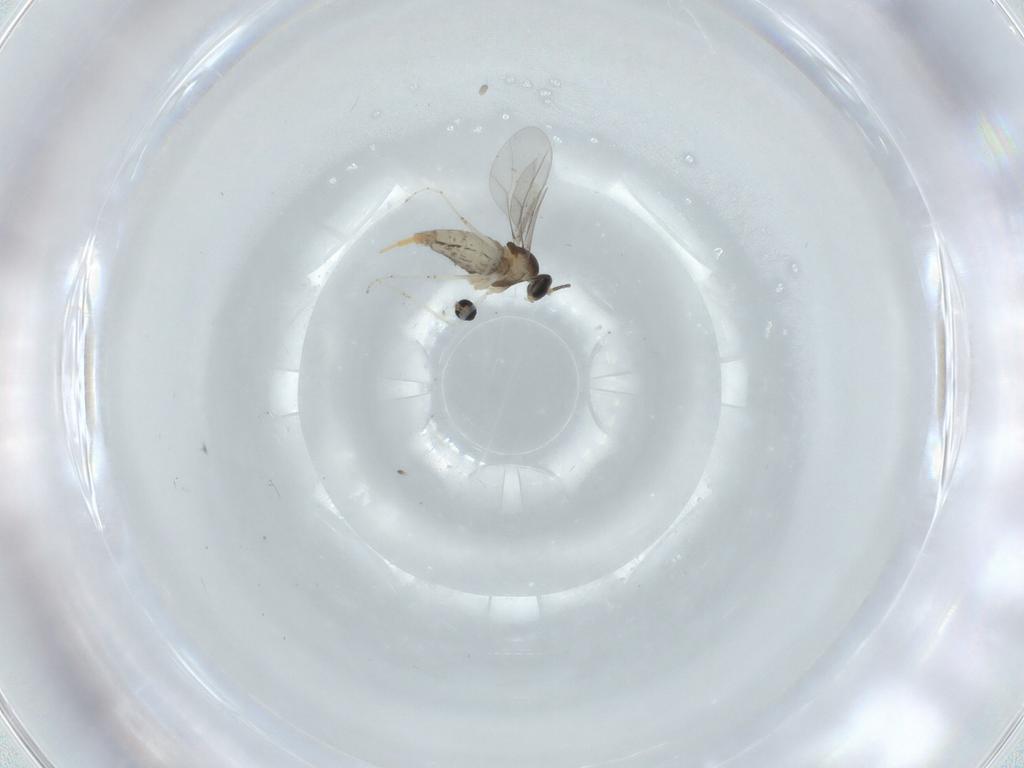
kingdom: Animalia
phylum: Arthropoda
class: Insecta
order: Diptera
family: Cecidomyiidae
